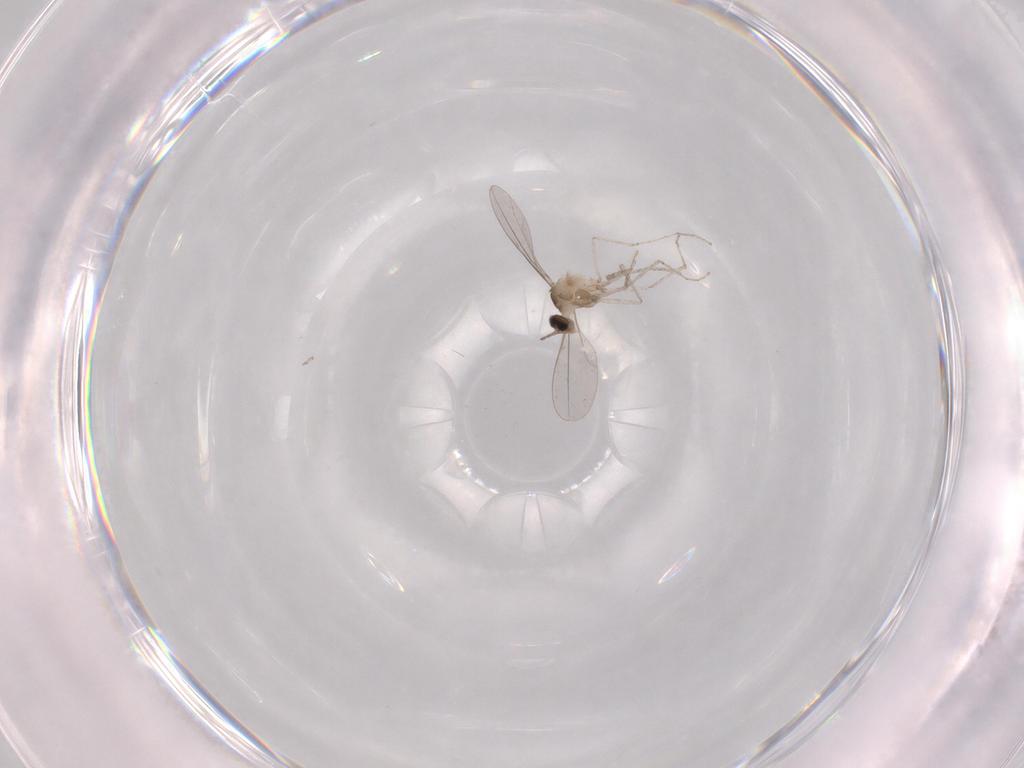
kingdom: Animalia
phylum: Arthropoda
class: Insecta
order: Diptera
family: Cecidomyiidae
